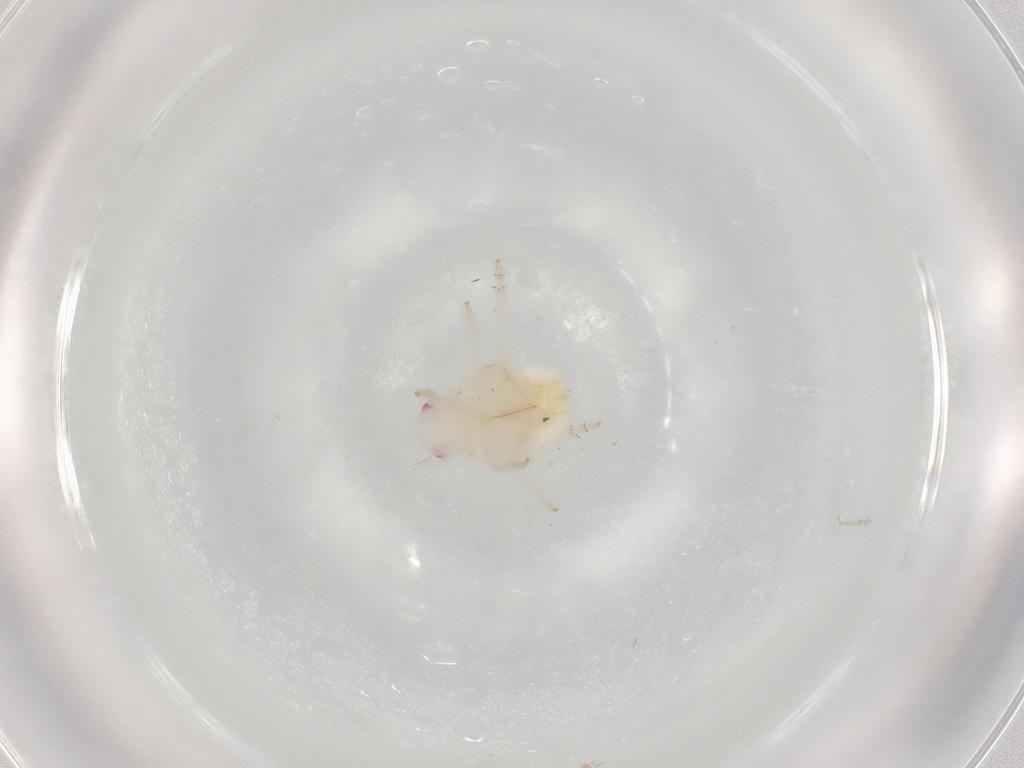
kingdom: Animalia
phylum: Arthropoda
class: Insecta
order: Hemiptera
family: Flatidae
